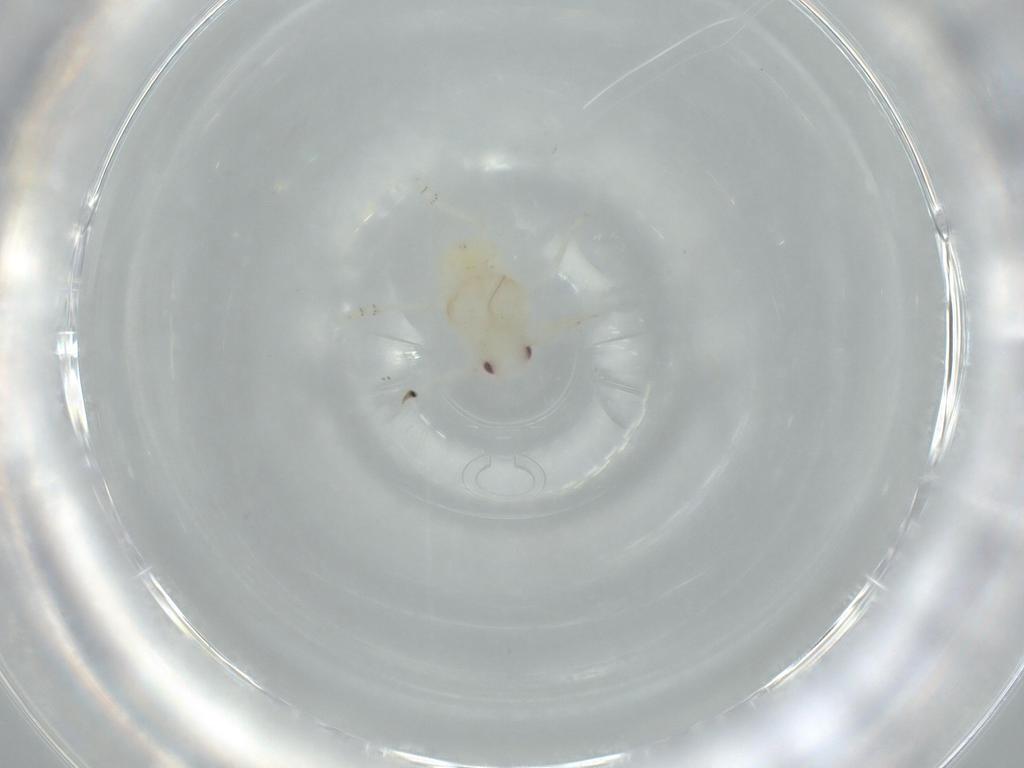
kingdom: Animalia
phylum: Arthropoda
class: Insecta
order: Hemiptera
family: Flatidae
